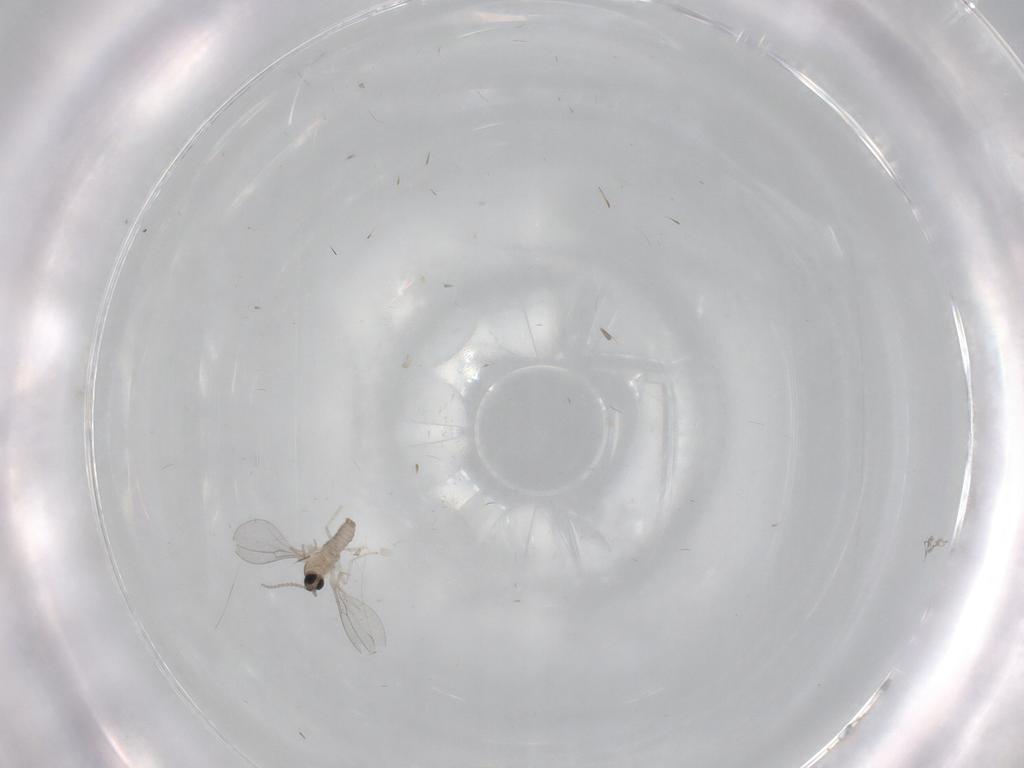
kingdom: Animalia
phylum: Arthropoda
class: Insecta
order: Diptera
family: Cecidomyiidae
